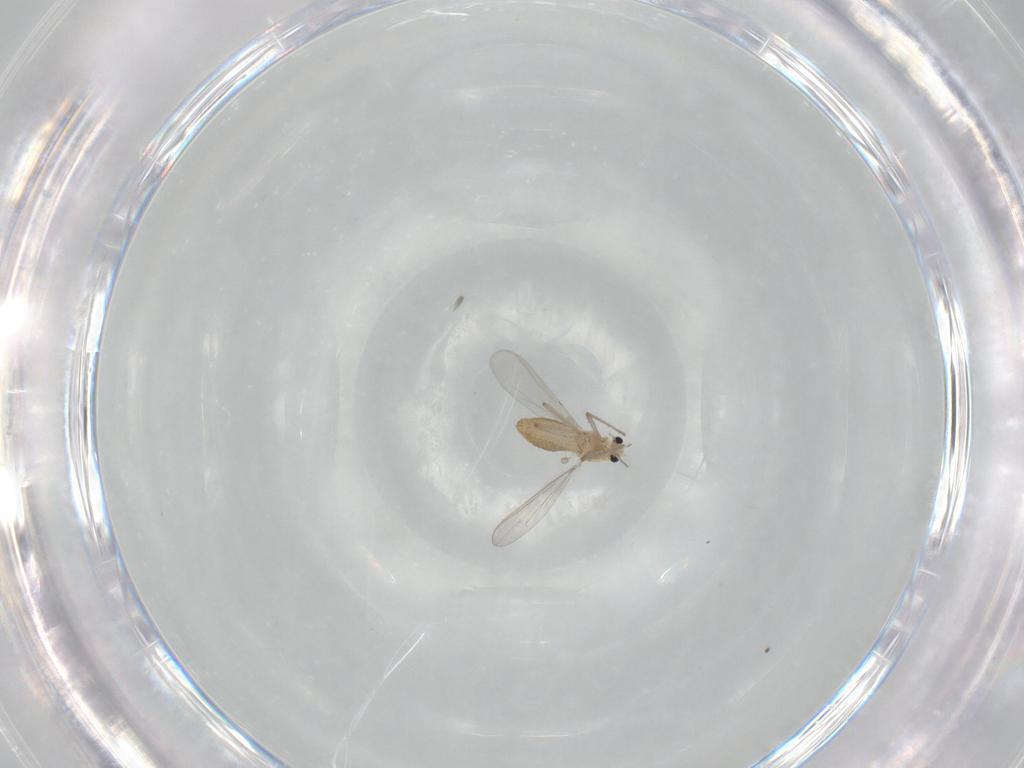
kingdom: Animalia
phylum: Arthropoda
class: Insecta
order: Diptera
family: Chironomidae
